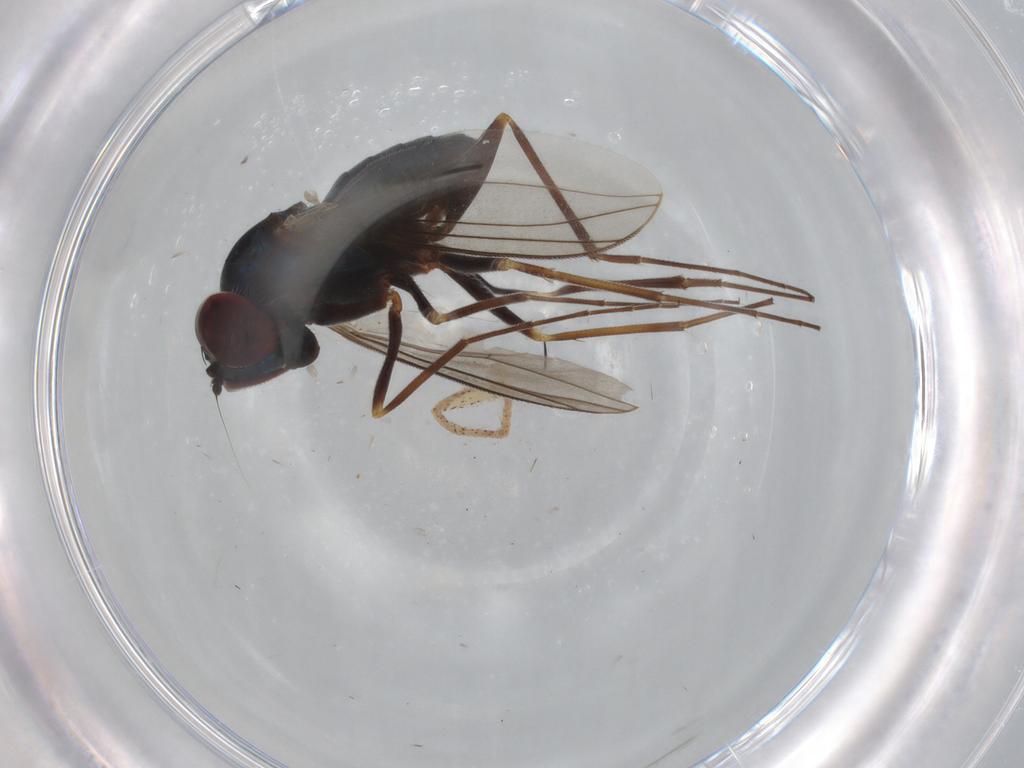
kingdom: Animalia
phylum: Arthropoda
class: Insecta
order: Diptera
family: Dolichopodidae
